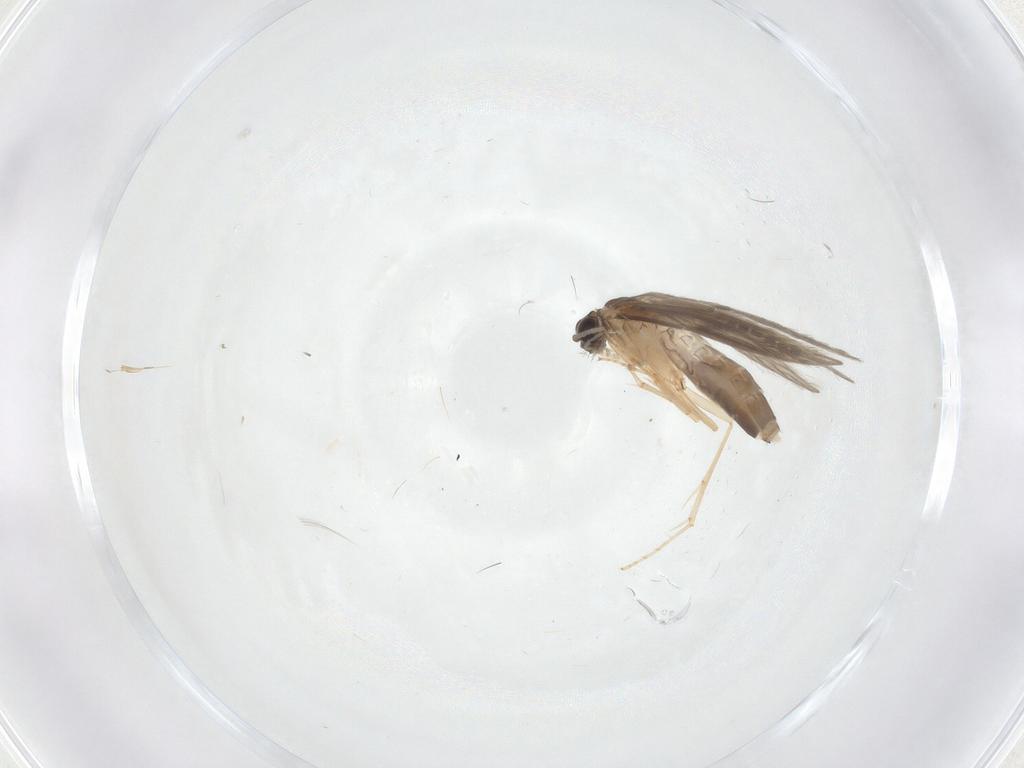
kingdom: Animalia
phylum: Arthropoda
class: Insecta
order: Trichoptera
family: Hydroptilidae
